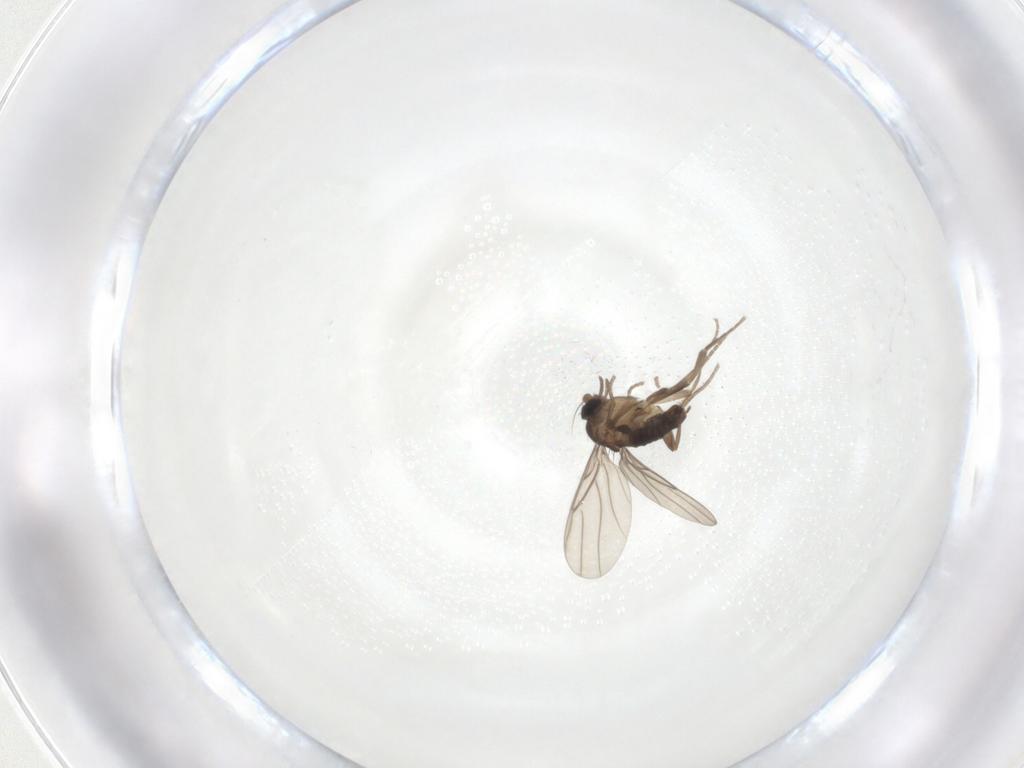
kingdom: Animalia
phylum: Arthropoda
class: Insecta
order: Diptera
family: Phoridae
